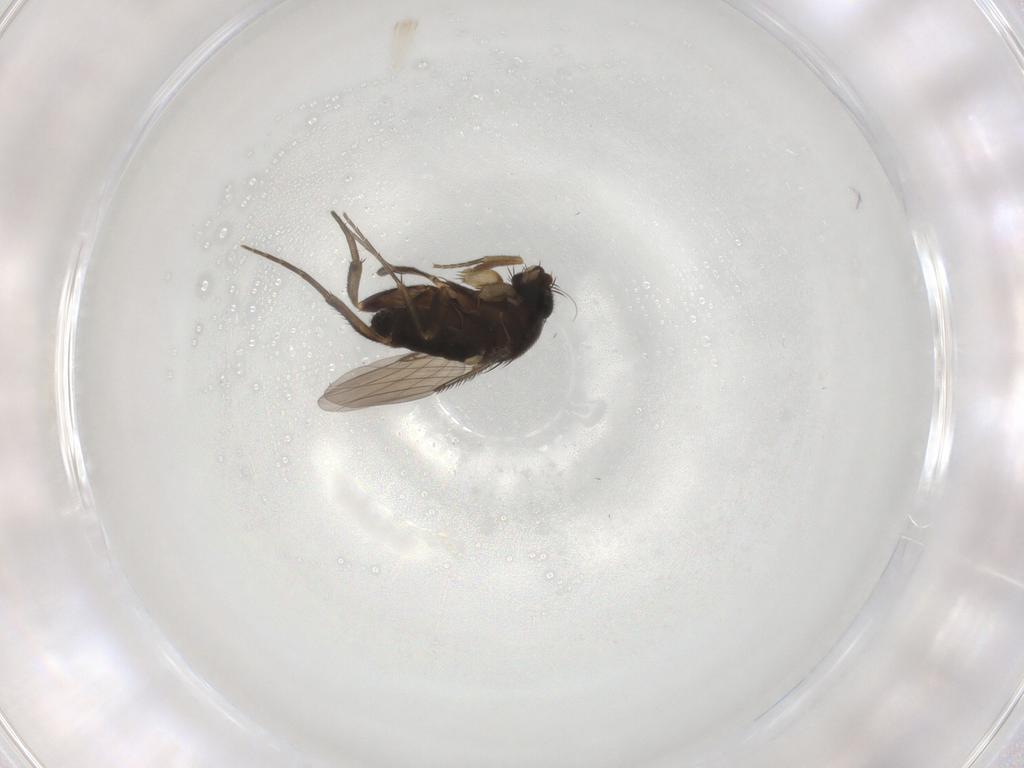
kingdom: Animalia
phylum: Arthropoda
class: Insecta
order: Diptera
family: Phoridae
